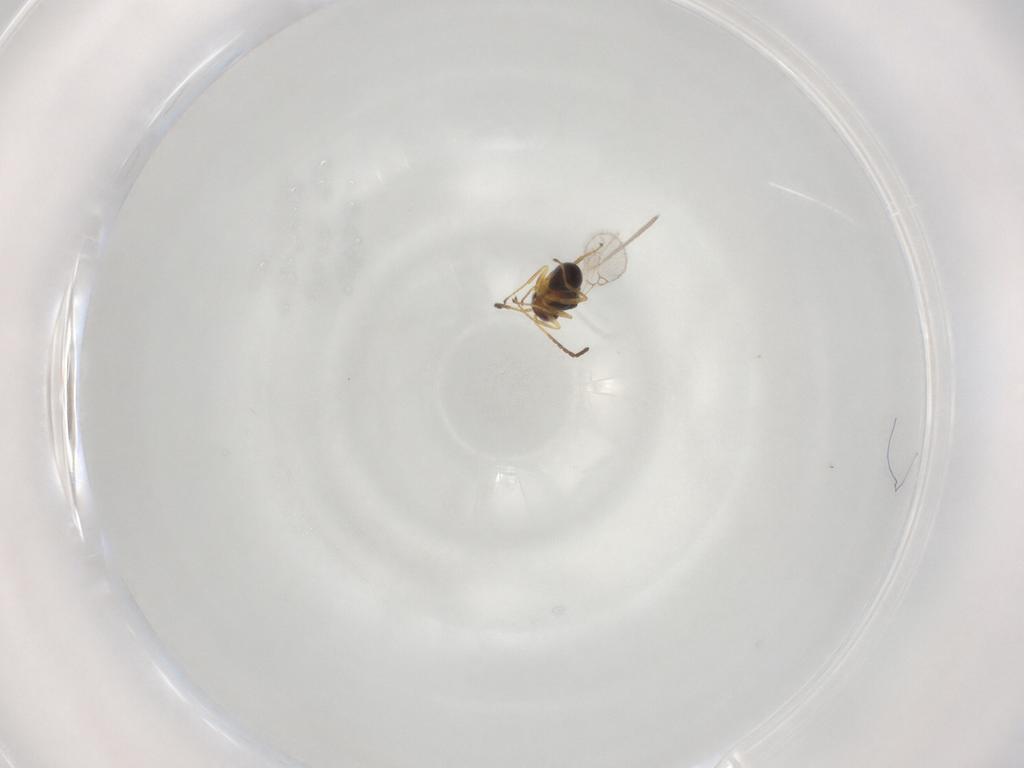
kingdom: Animalia
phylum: Arthropoda
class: Insecta
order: Hymenoptera
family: Figitidae
